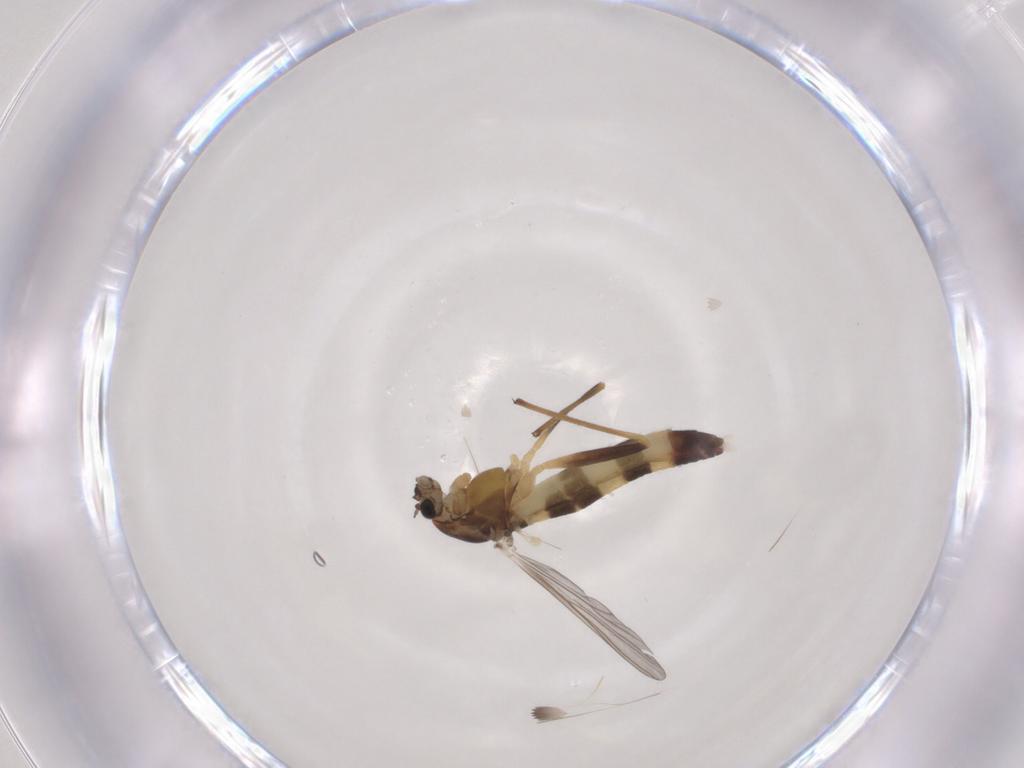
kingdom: Animalia
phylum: Arthropoda
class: Insecta
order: Diptera
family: Chironomidae
